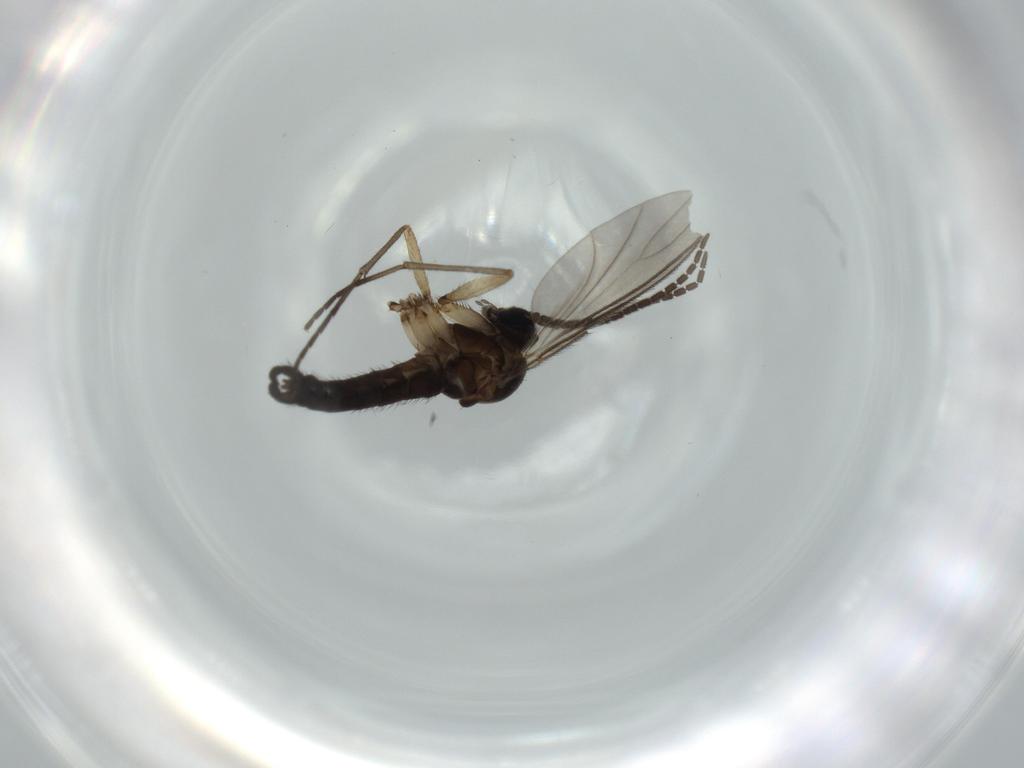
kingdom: Animalia
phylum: Arthropoda
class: Insecta
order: Diptera
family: Sciaridae
